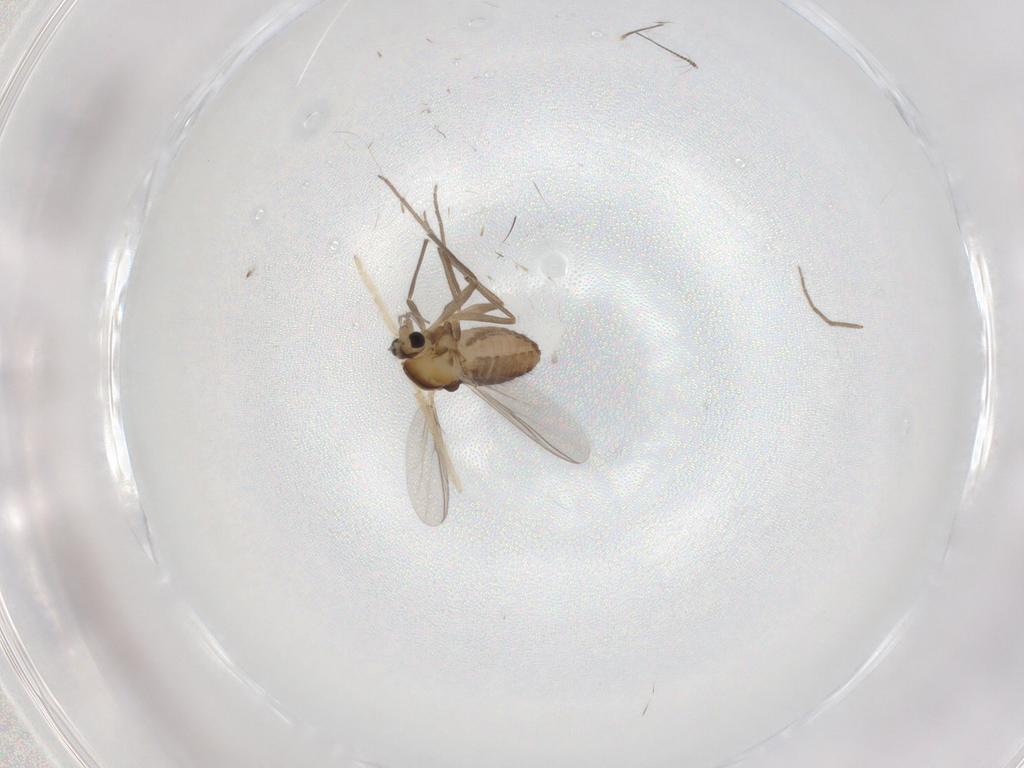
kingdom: Animalia
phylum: Arthropoda
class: Insecta
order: Diptera
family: Chironomidae
